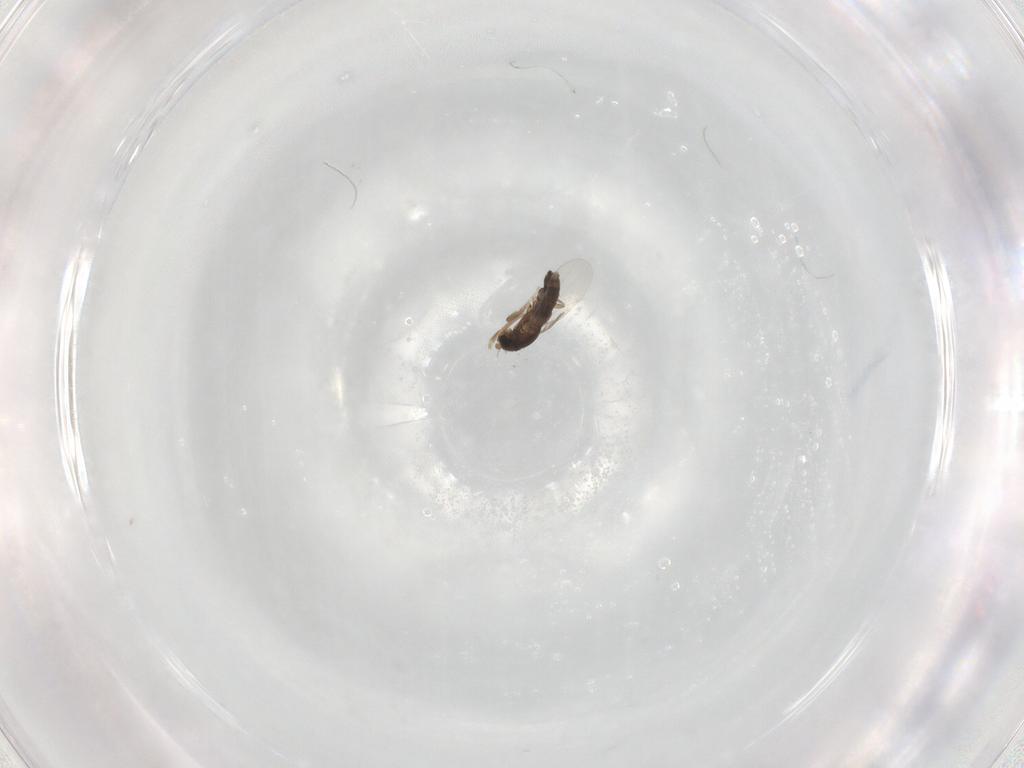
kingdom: Animalia
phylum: Arthropoda
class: Insecta
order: Diptera
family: Phoridae
